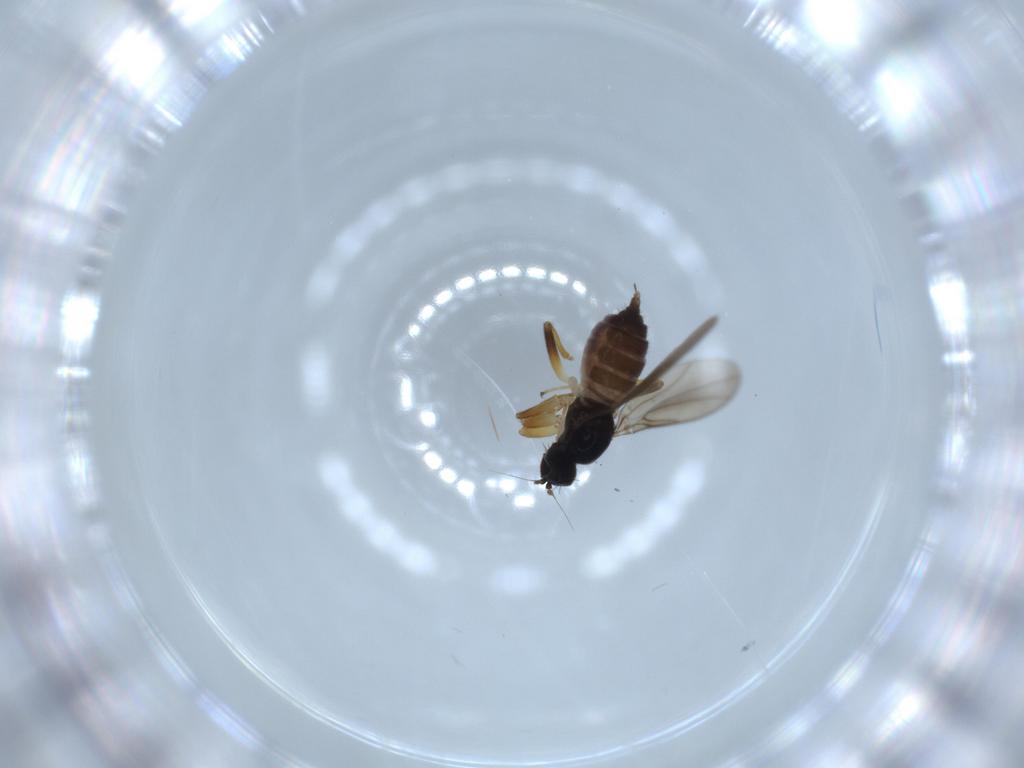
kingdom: Animalia
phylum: Arthropoda
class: Insecta
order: Diptera
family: Hybotidae
